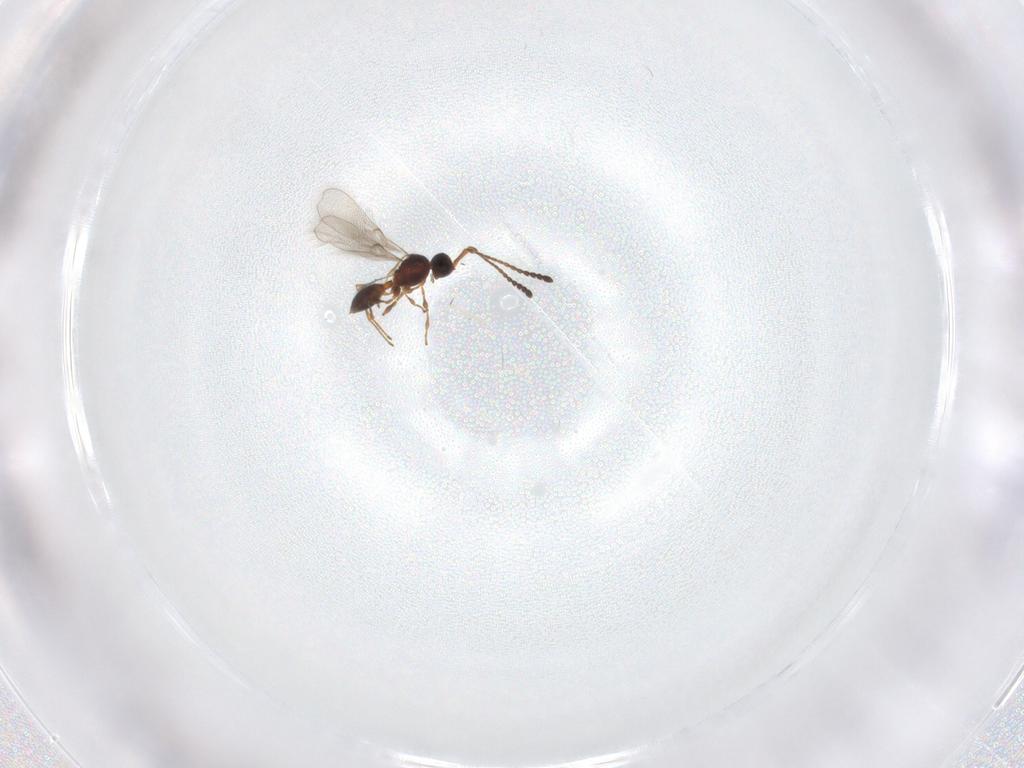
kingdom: Animalia
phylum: Arthropoda
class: Insecta
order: Hymenoptera
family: Diapriidae
